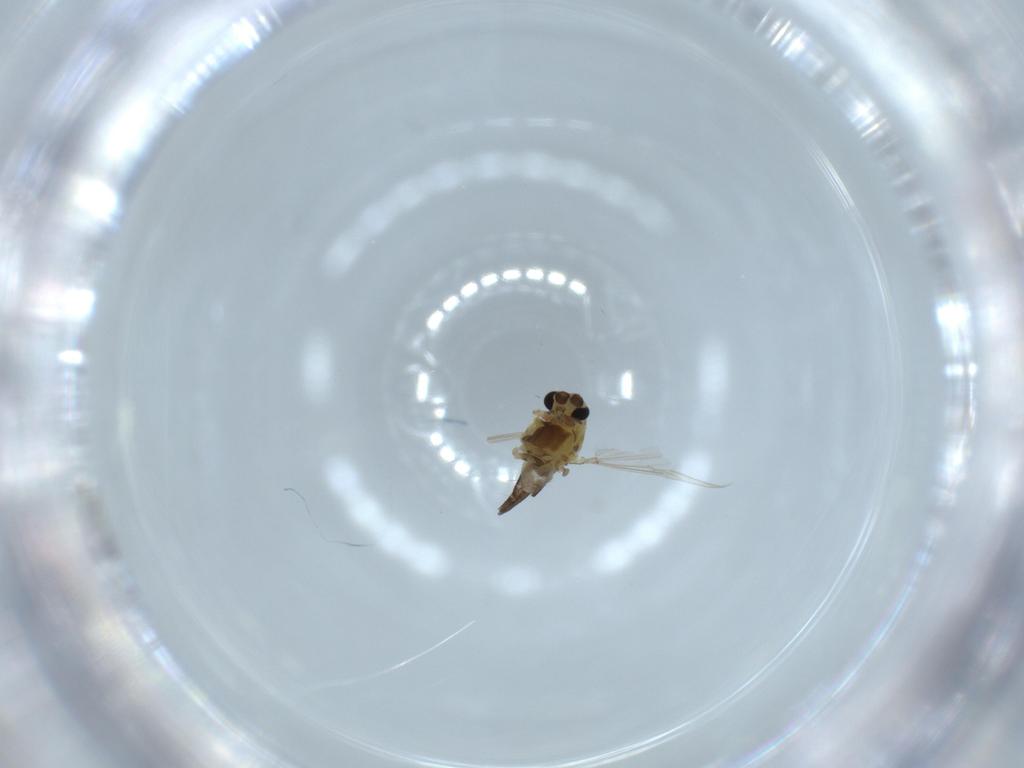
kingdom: Animalia
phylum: Arthropoda
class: Insecta
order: Diptera
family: Chironomidae
